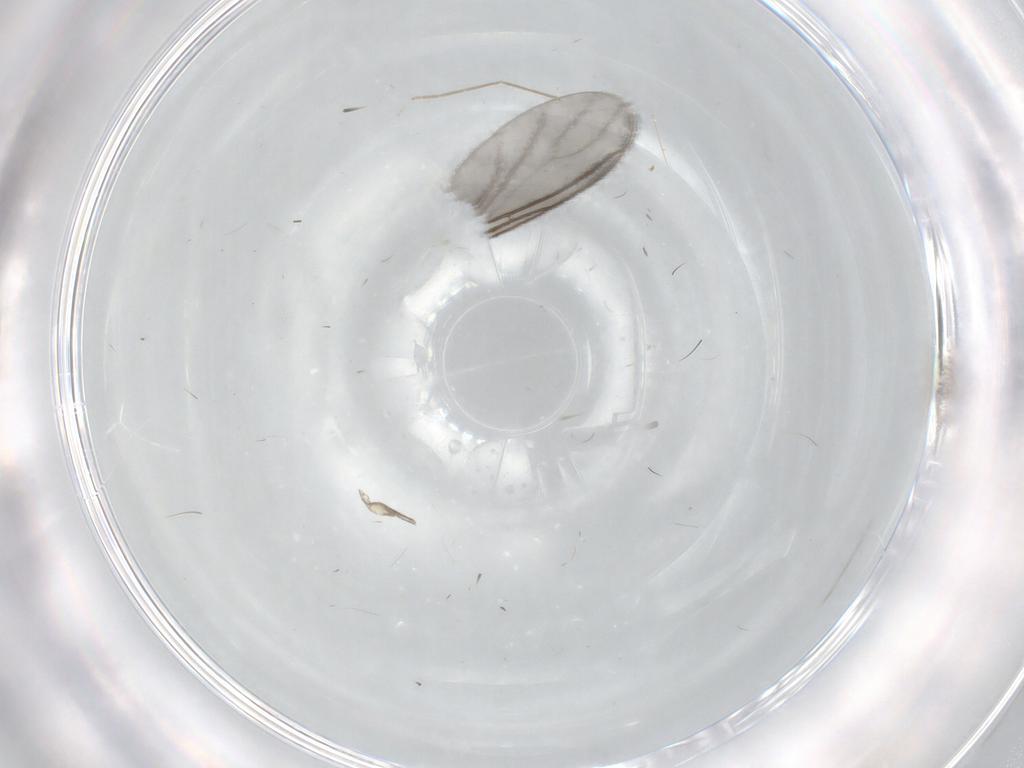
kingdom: Animalia
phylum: Arthropoda
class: Insecta
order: Diptera
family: Psychodidae
